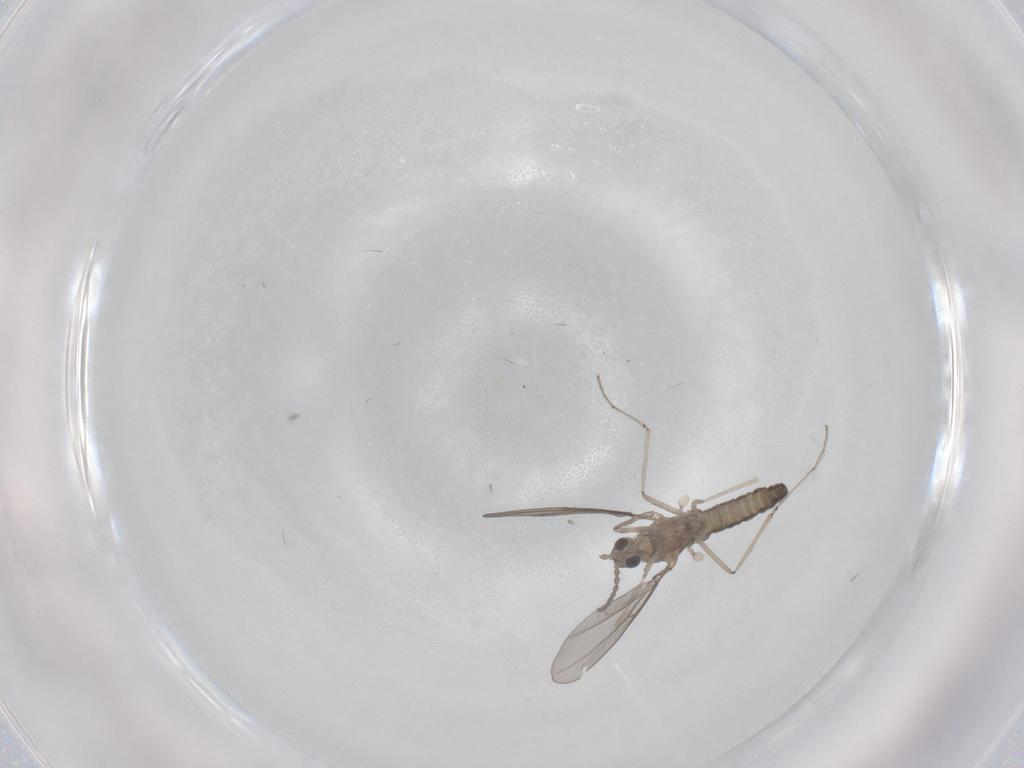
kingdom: Animalia
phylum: Arthropoda
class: Insecta
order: Diptera
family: Cecidomyiidae
